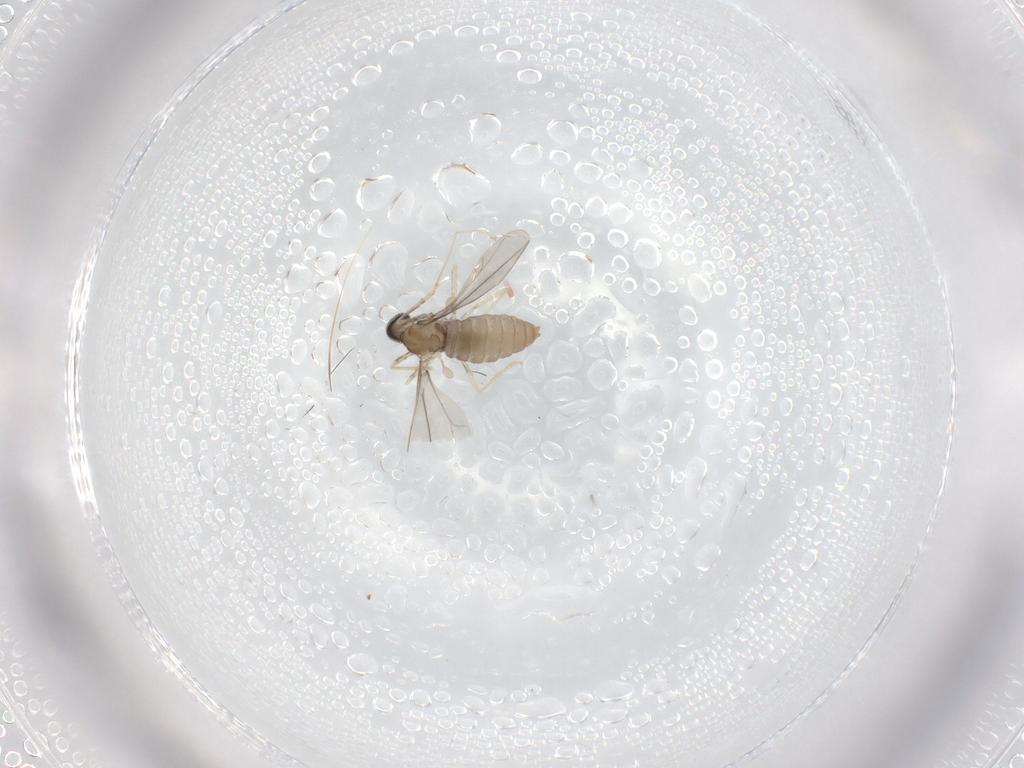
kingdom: Animalia
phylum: Arthropoda
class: Insecta
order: Diptera
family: Cecidomyiidae
